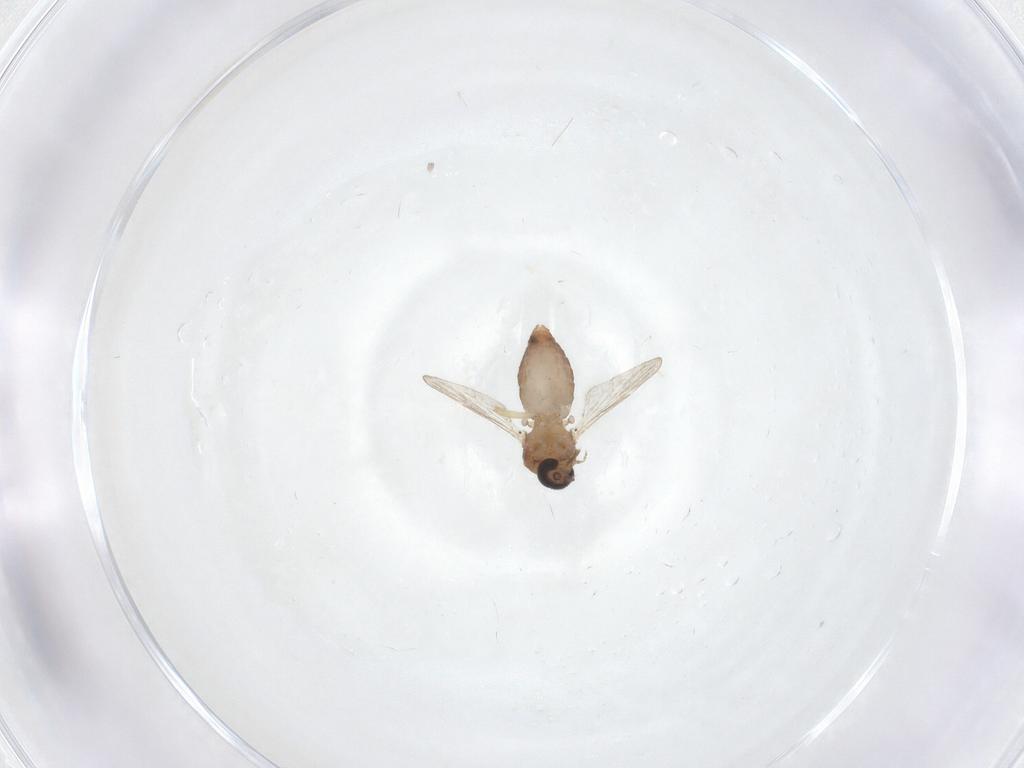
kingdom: Animalia
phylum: Arthropoda
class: Insecta
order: Diptera
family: Ceratopogonidae
